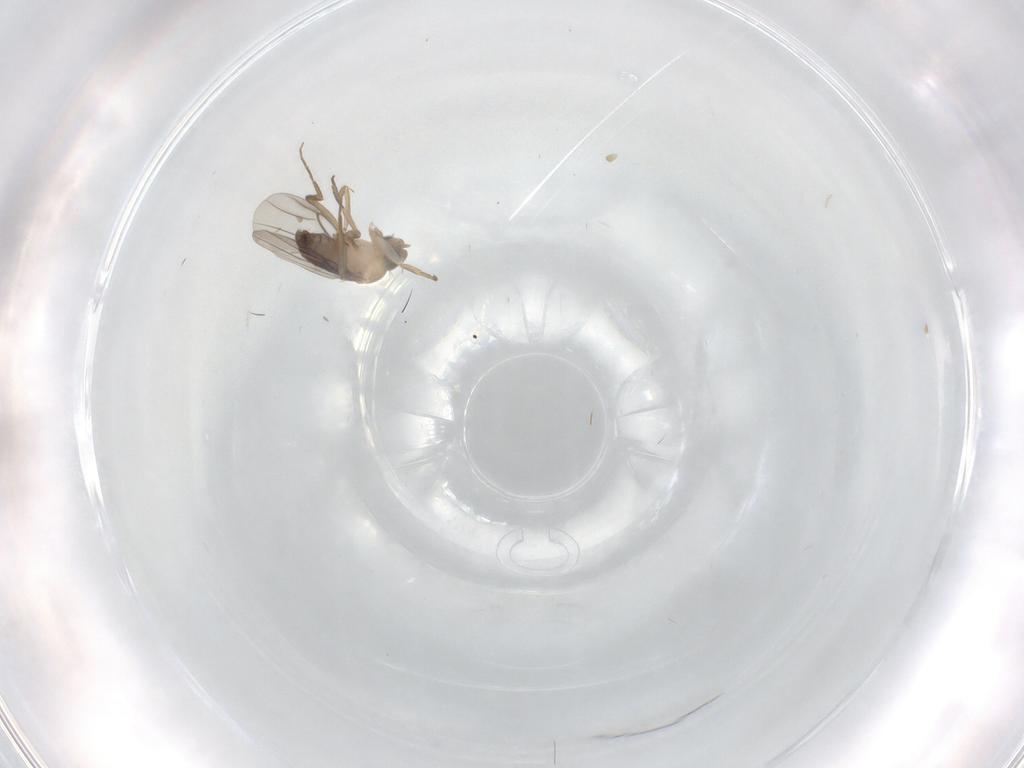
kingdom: Animalia
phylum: Arthropoda
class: Insecta
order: Diptera
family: Phoridae
